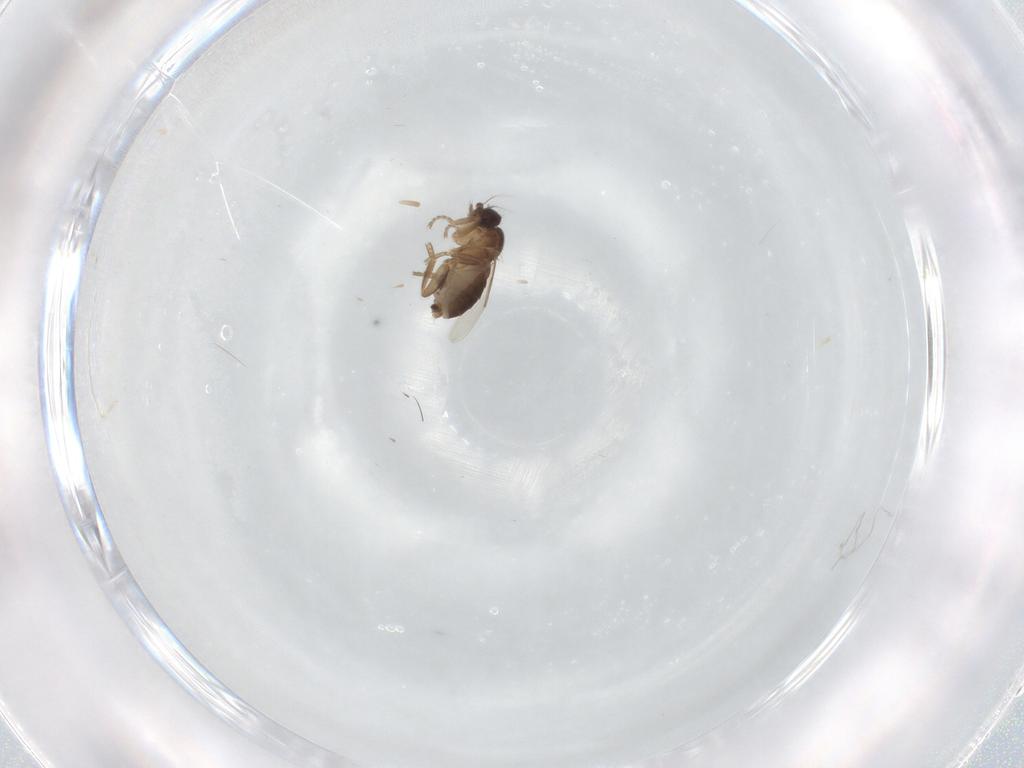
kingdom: Animalia
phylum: Arthropoda
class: Insecta
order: Diptera
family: Phoridae
